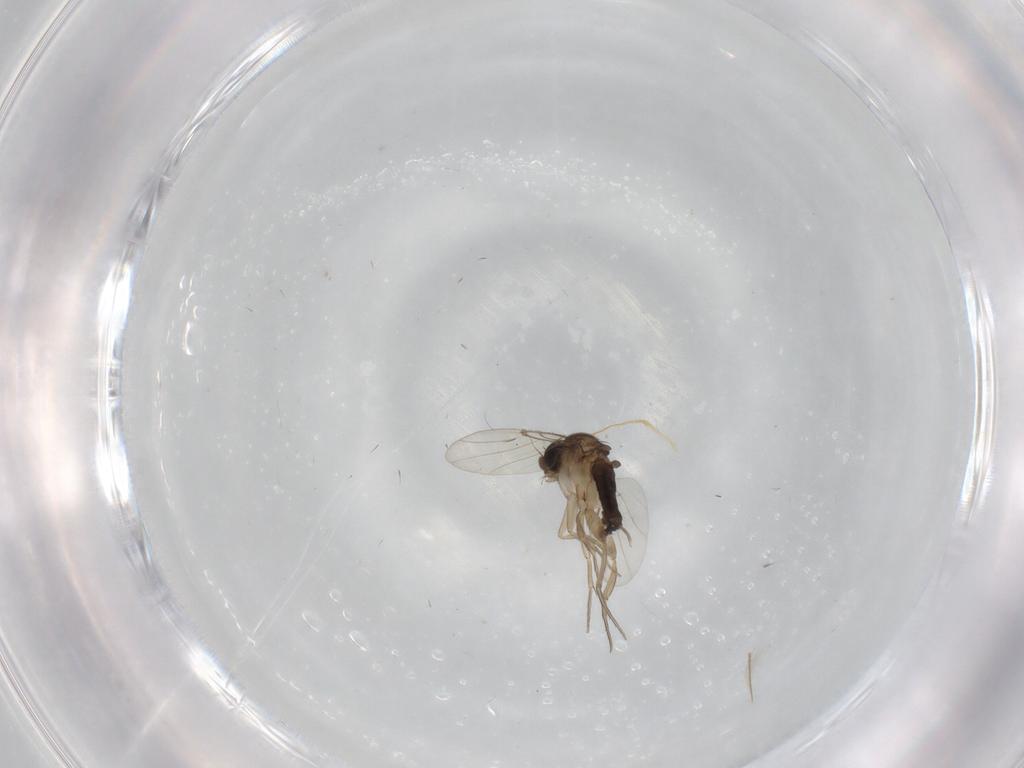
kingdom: Animalia
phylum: Arthropoda
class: Insecta
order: Diptera
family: Phoridae
